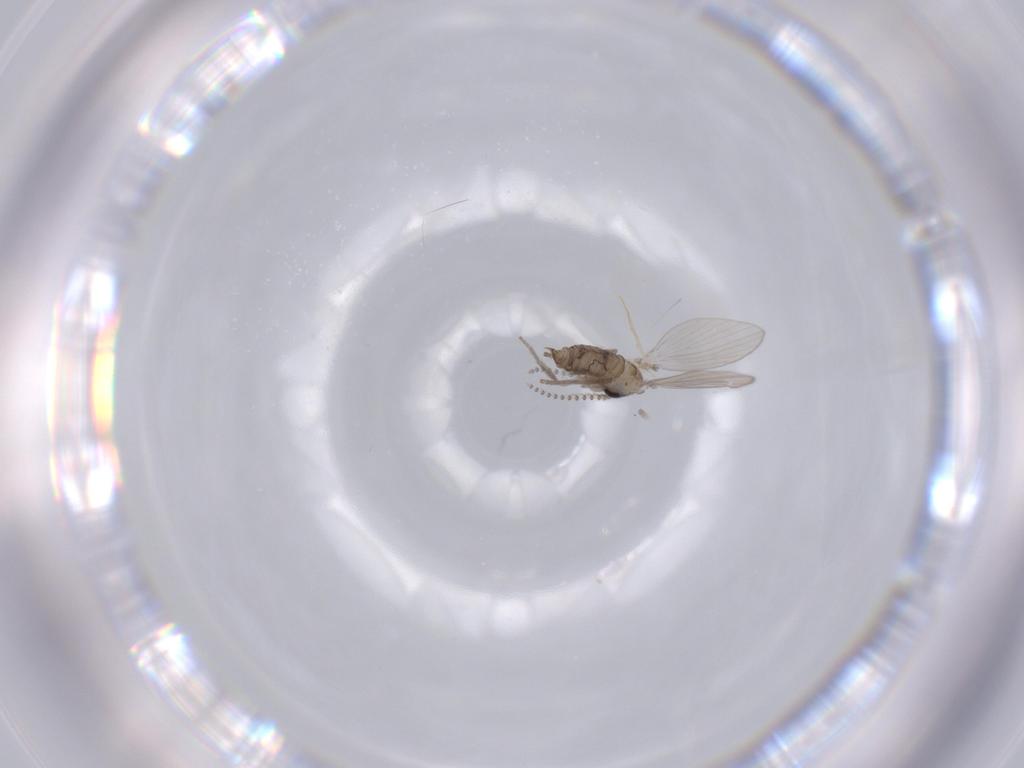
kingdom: Animalia
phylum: Arthropoda
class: Insecta
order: Diptera
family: Psychodidae
